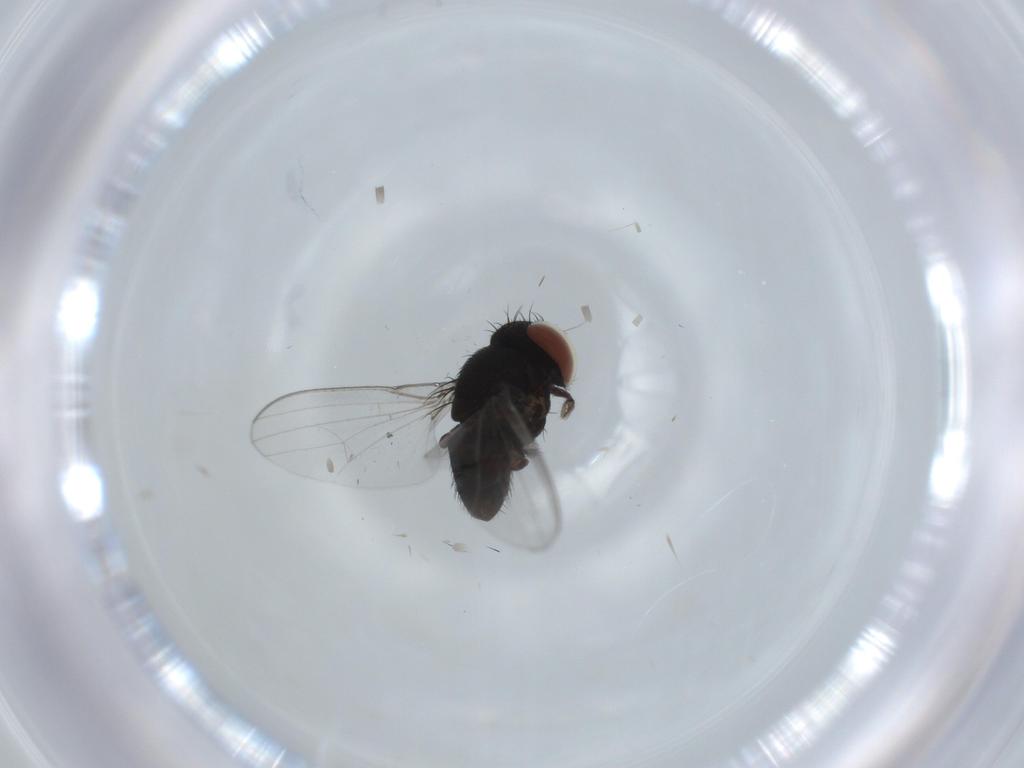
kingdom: Animalia
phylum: Arthropoda
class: Insecta
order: Diptera
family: Milichiidae
